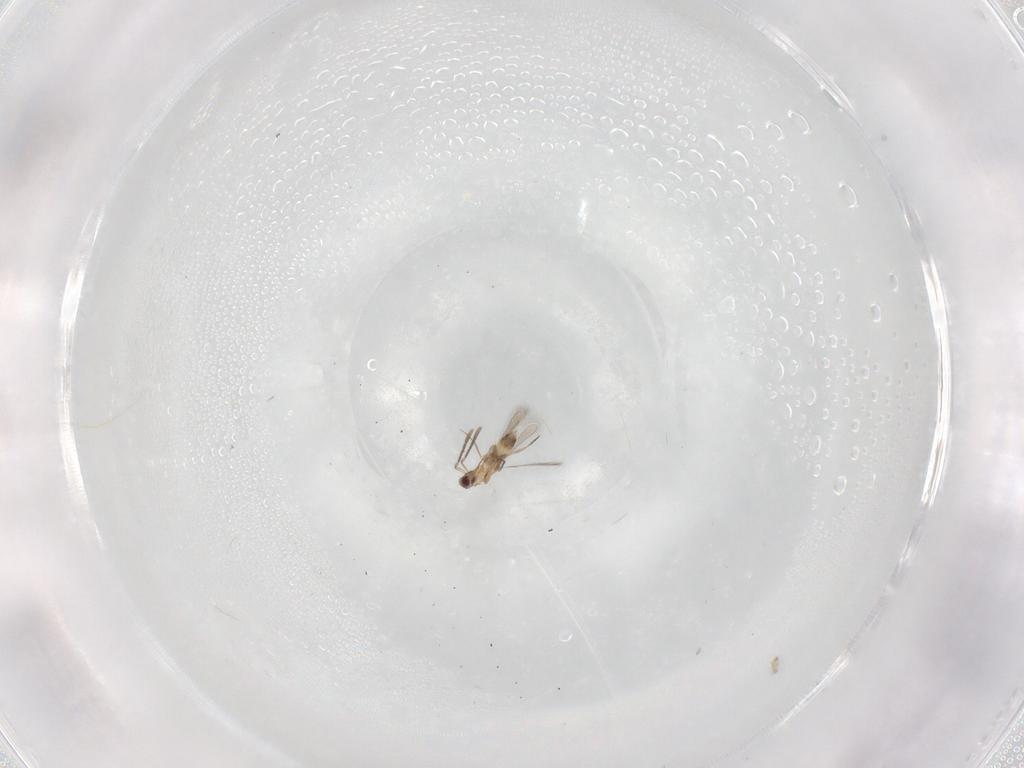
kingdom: Animalia
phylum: Arthropoda
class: Insecta
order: Hymenoptera
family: Mymaridae
